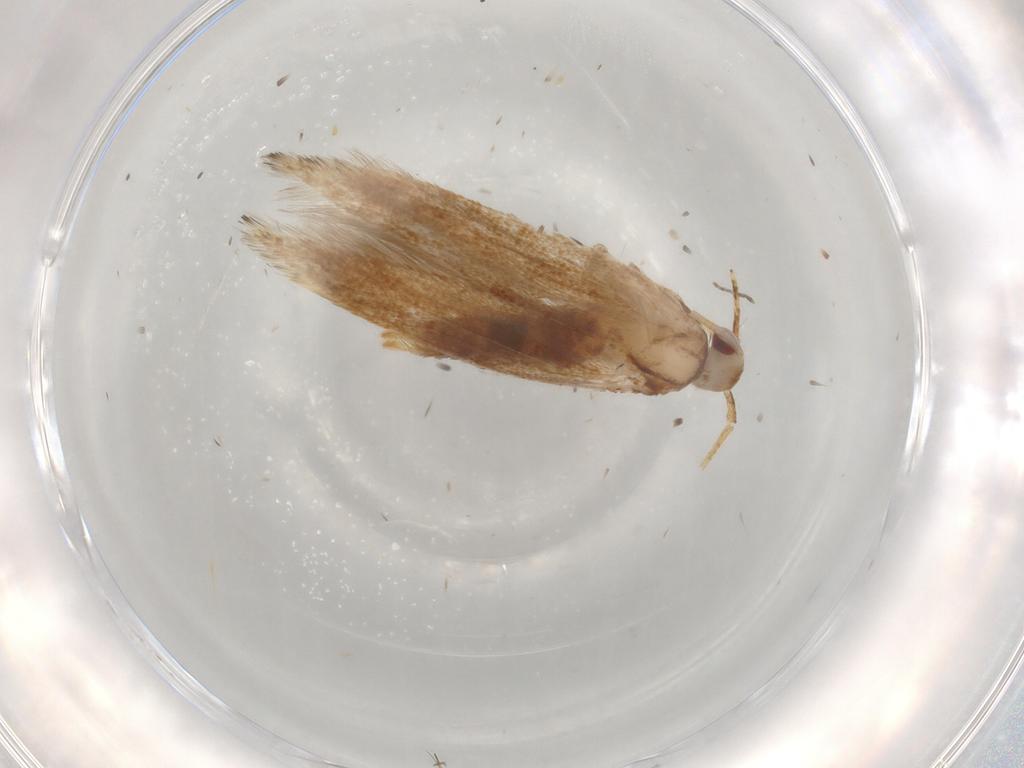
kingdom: Animalia
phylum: Arthropoda
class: Insecta
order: Lepidoptera
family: Cosmopterigidae
